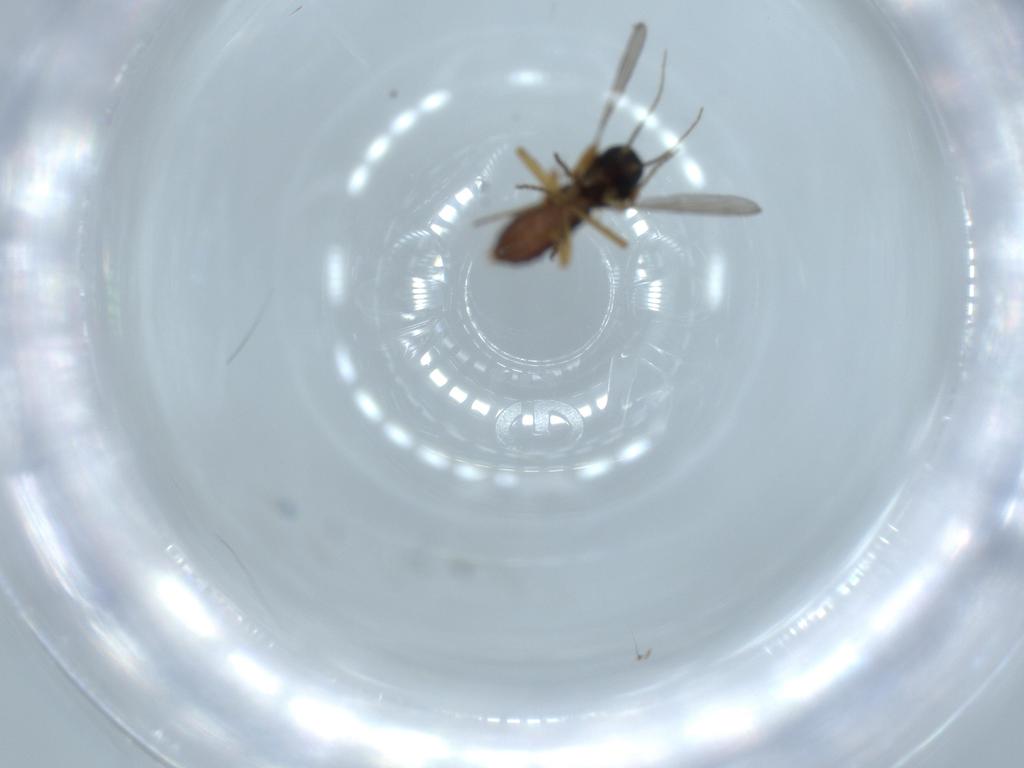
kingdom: Animalia
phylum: Arthropoda
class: Insecta
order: Diptera
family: Ceratopogonidae
